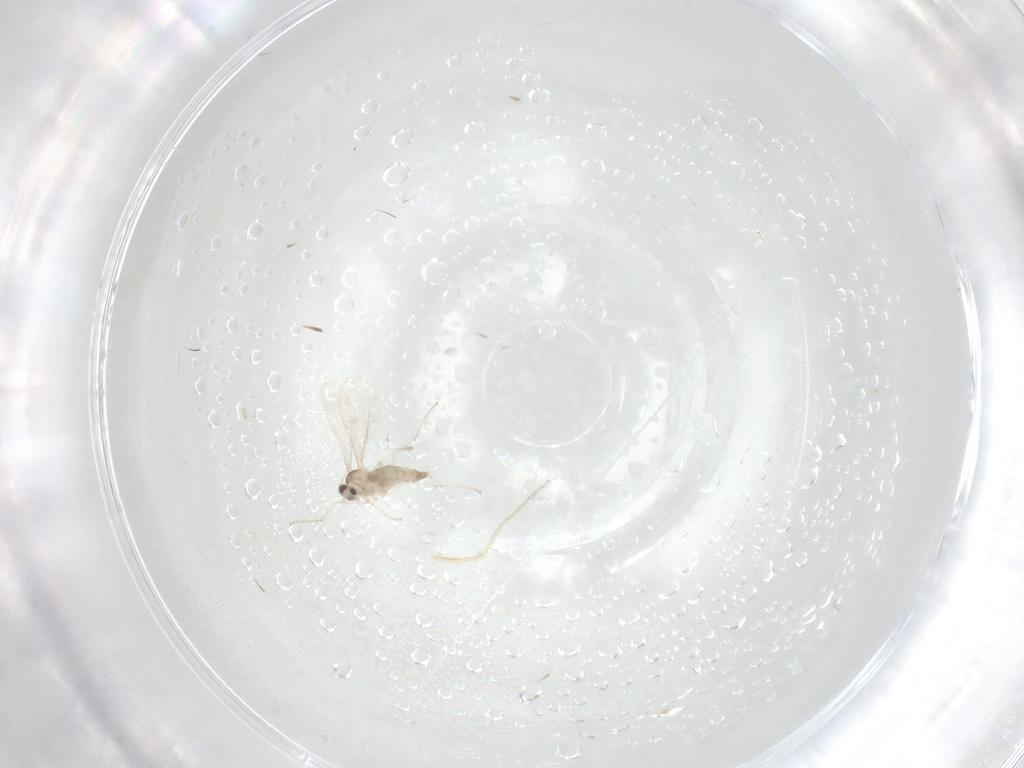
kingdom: Animalia
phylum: Arthropoda
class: Insecta
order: Diptera
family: Cecidomyiidae
